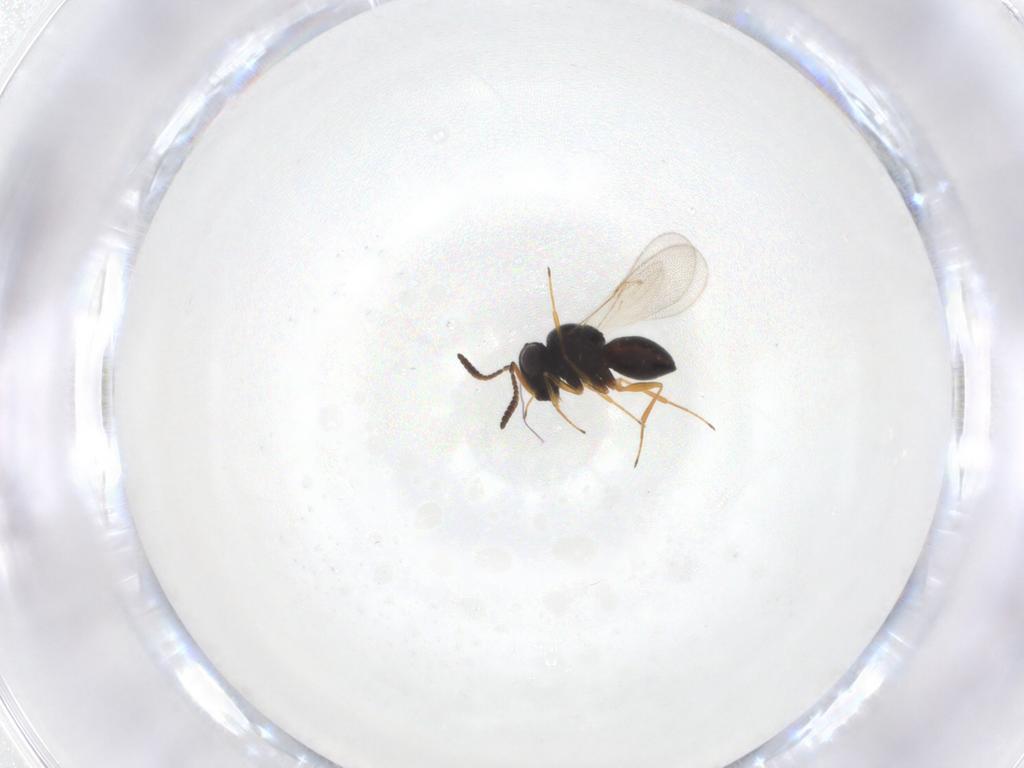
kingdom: Animalia
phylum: Arthropoda
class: Insecta
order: Hymenoptera
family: Scelionidae
